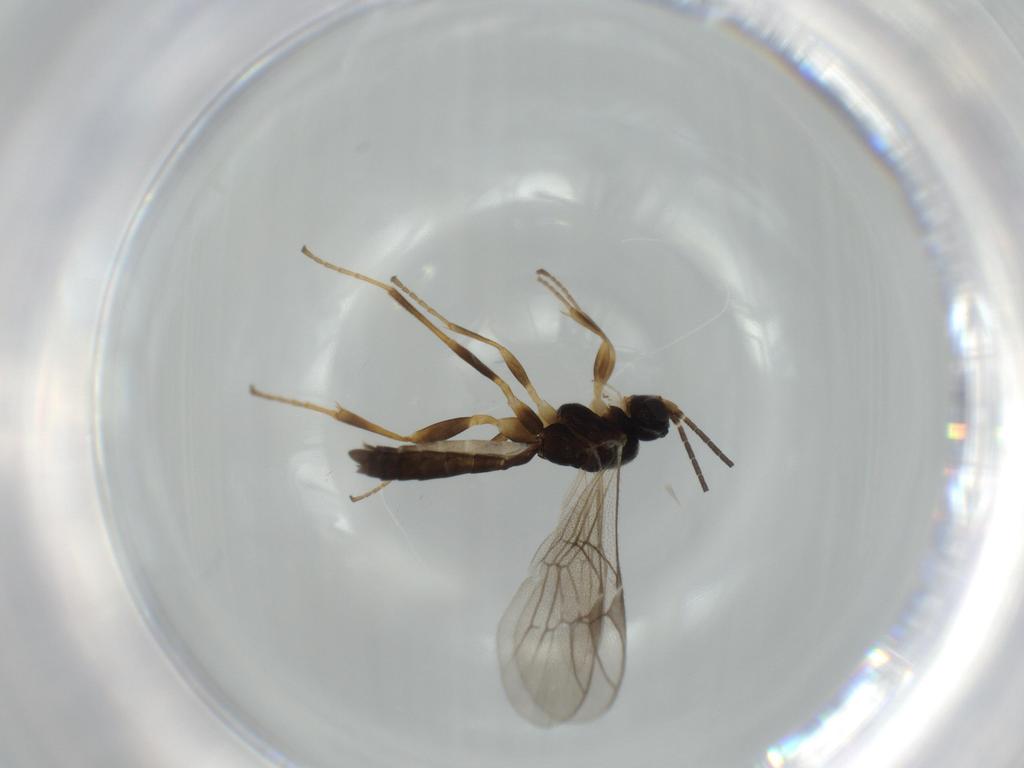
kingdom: Animalia
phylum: Arthropoda
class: Insecta
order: Hymenoptera
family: Ichneumonidae
